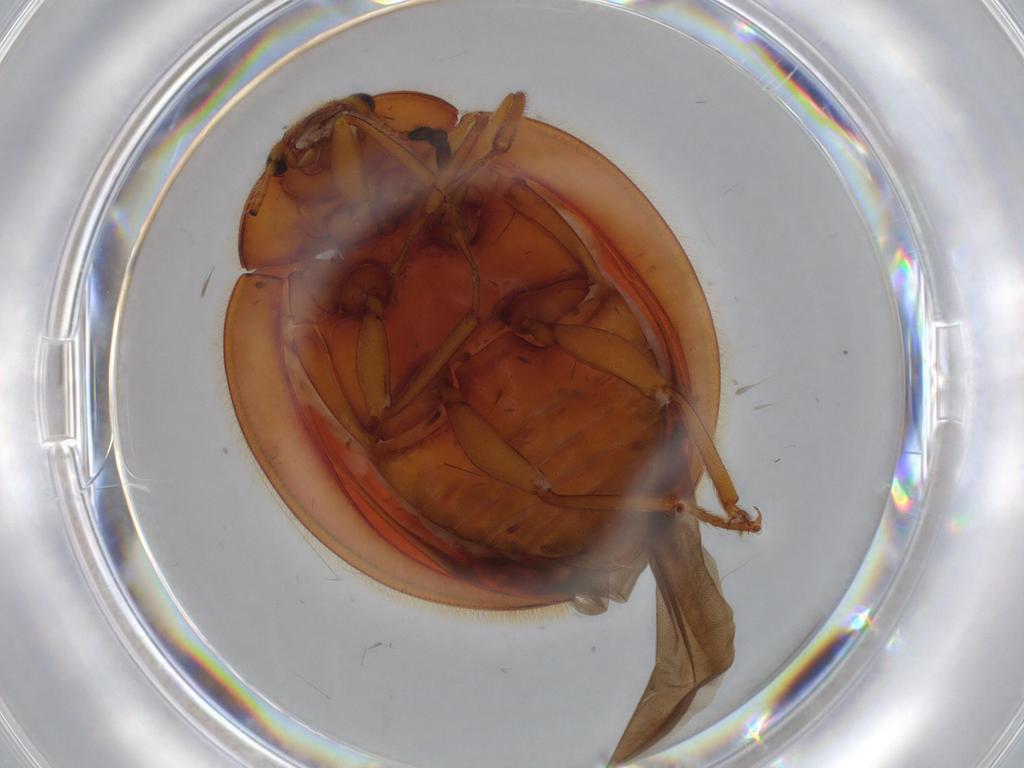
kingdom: Animalia
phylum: Arthropoda
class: Insecta
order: Coleoptera
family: Anamorphidae
